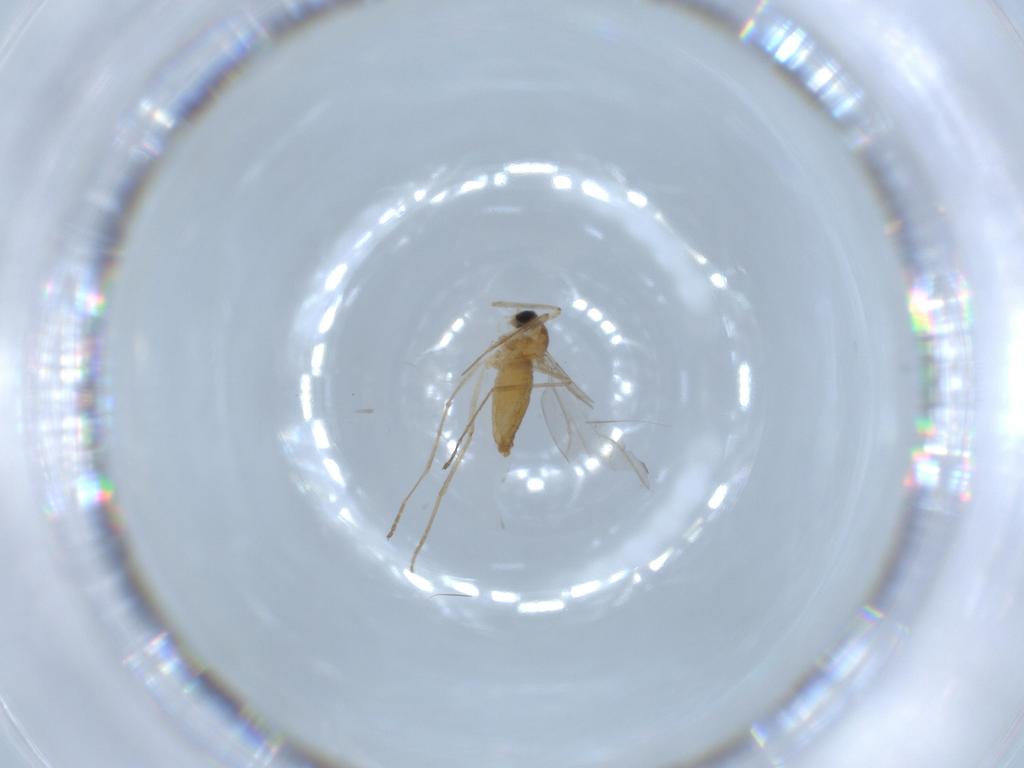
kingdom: Animalia
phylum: Arthropoda
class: Insecta
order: Diptera
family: Cecidomyiidae
